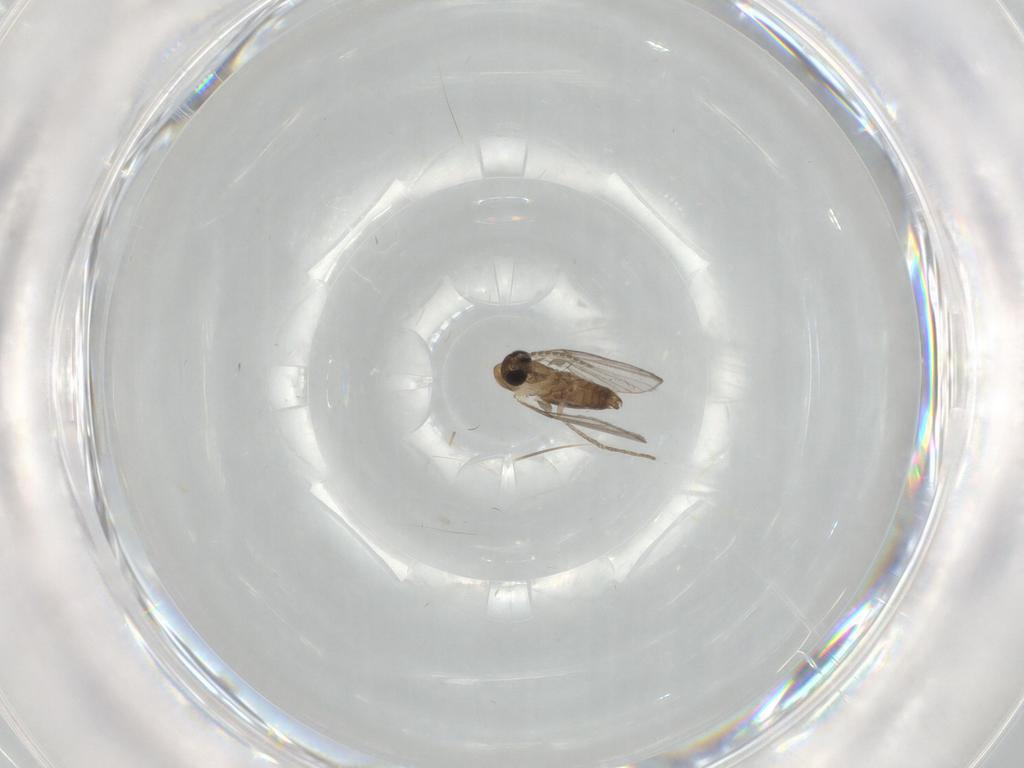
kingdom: Animalia
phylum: Arthropoda
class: Insecta
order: Diptera
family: Psychodidae
